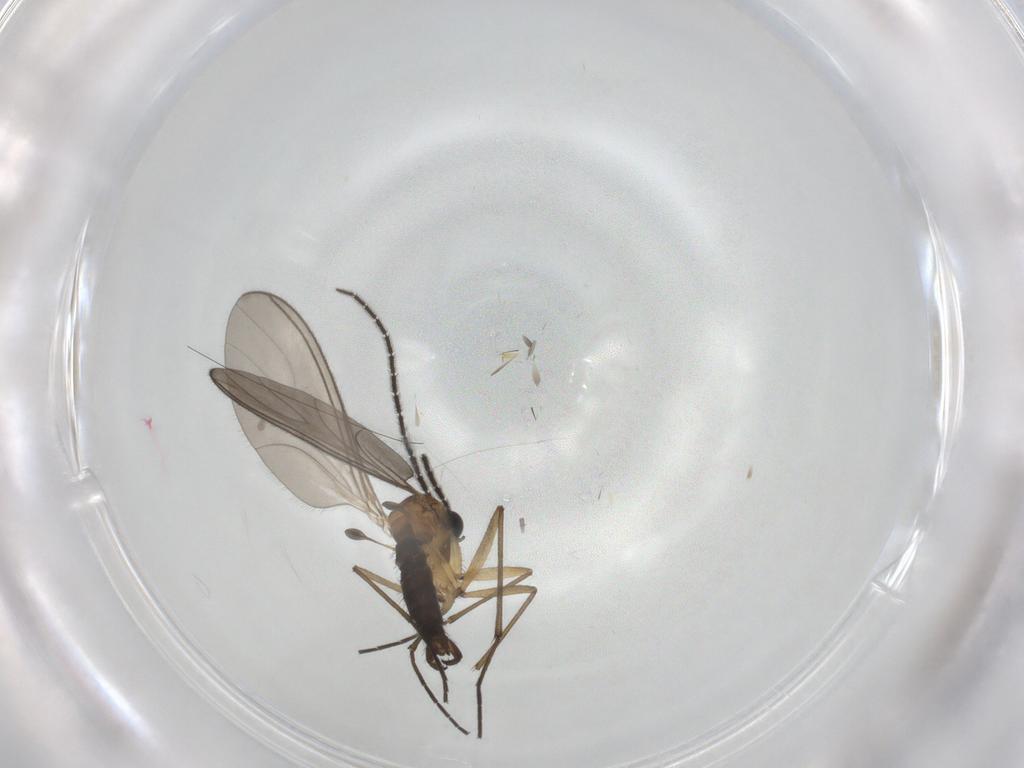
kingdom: Animalia
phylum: Arthropoda
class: Insecta
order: Diptera
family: Sciaridae
